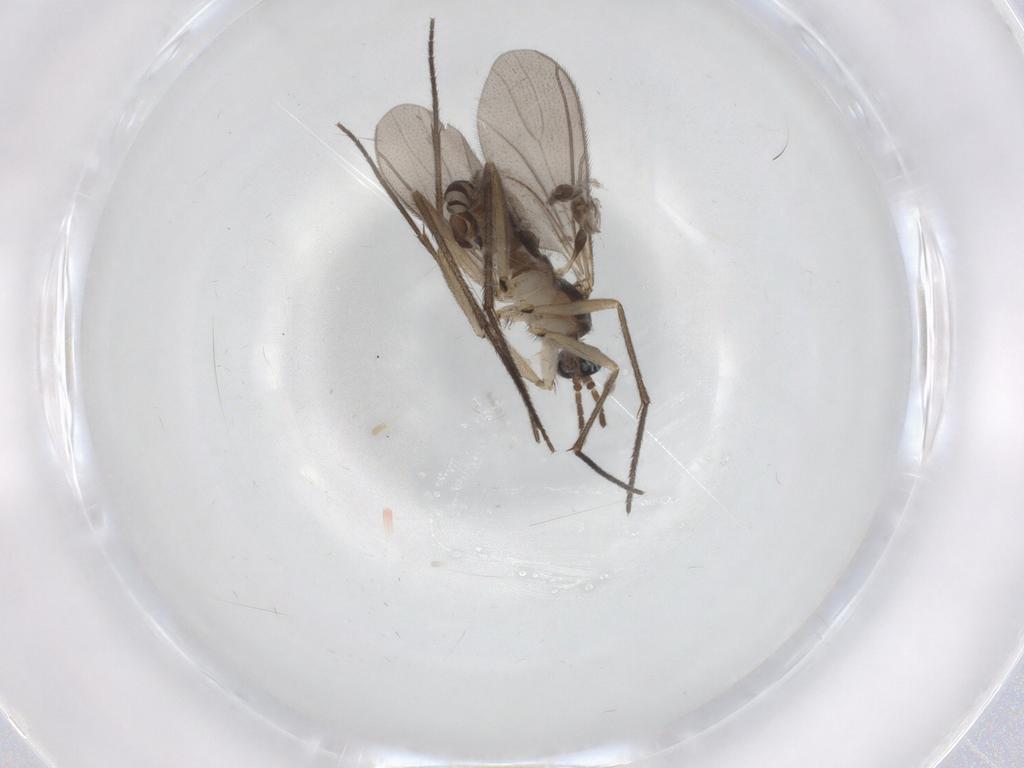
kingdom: Animalia
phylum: Arthropoda
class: Insecta
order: Diptera
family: Sciaridae
